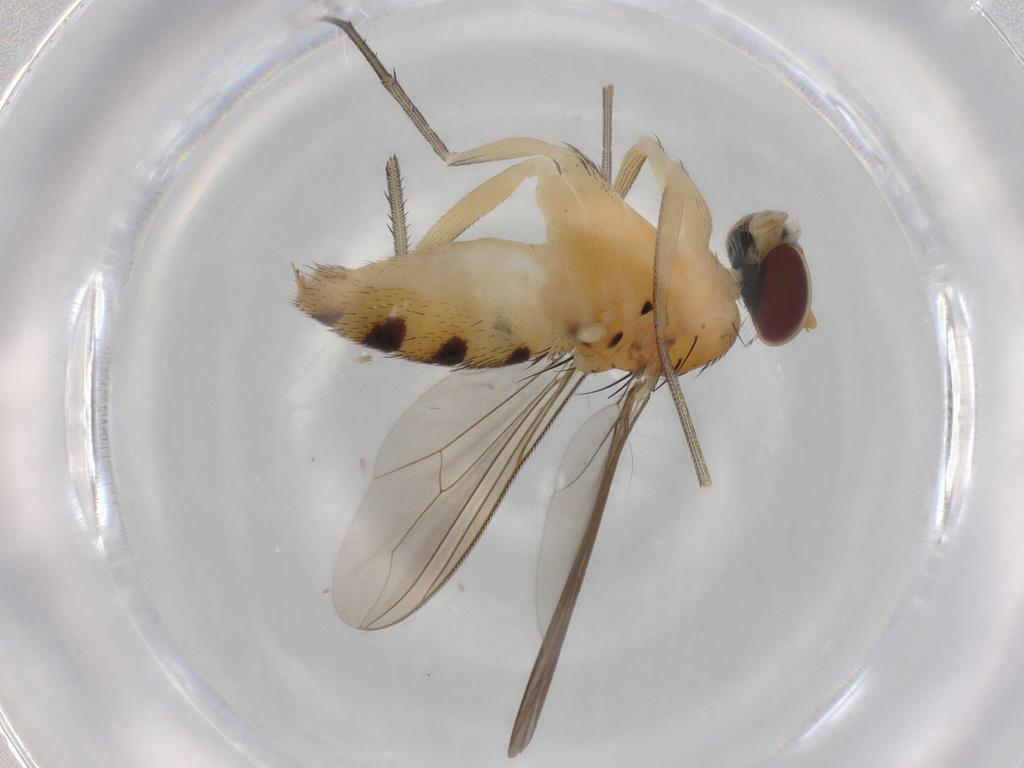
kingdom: Animalia
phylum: Arthropoda
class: Insecta
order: Diptera
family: Dolichopodidae
